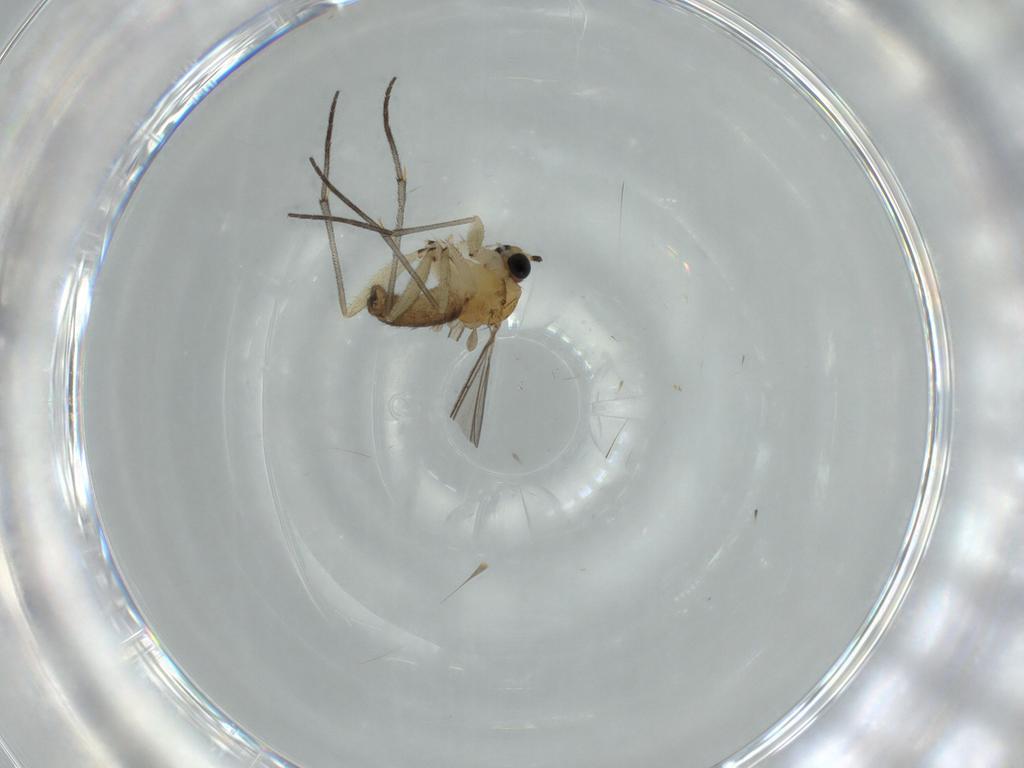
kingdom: Animalia
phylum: Arthropoda
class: Insecta
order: Diptera
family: Sciaridae
